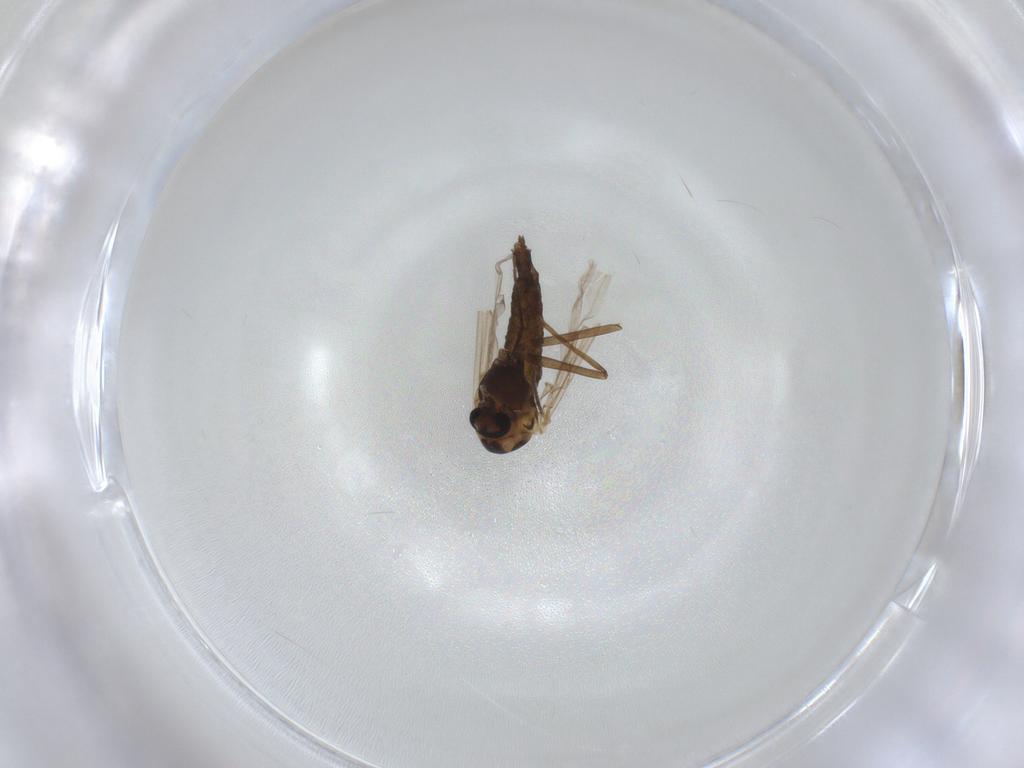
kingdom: Animalia
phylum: Arthropoda
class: Insecta
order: Diptera
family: Chironomidae
